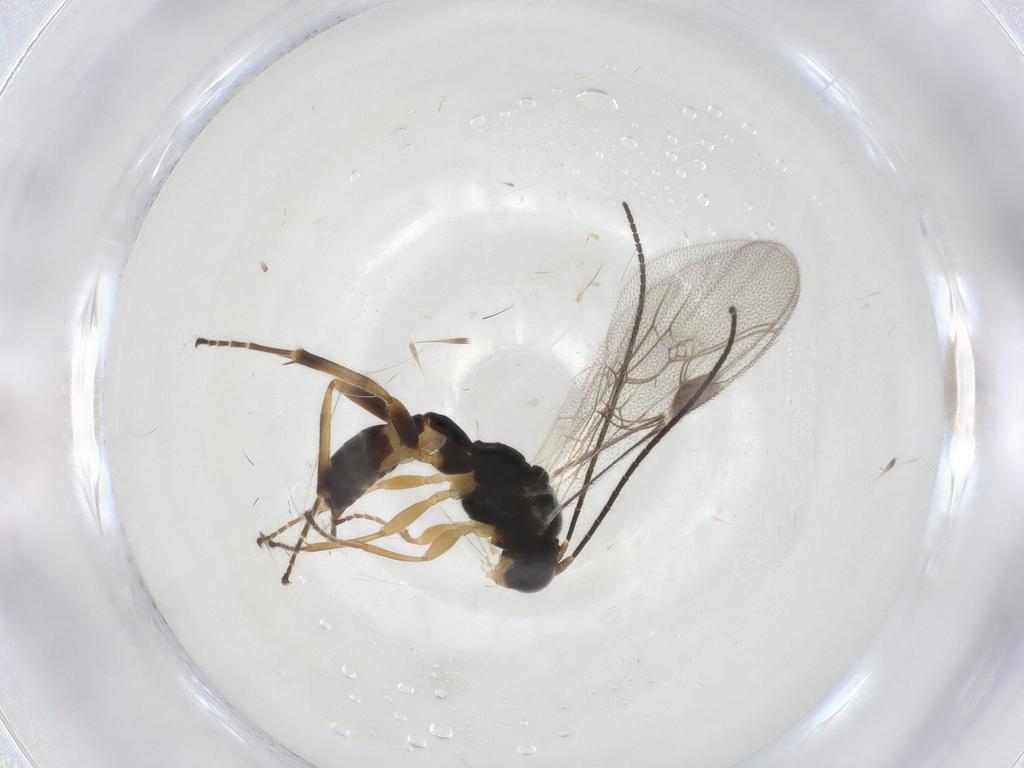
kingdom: Animalia
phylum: Arthropoda
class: Insecta
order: Hymenoptera
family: Ichneumonidae
